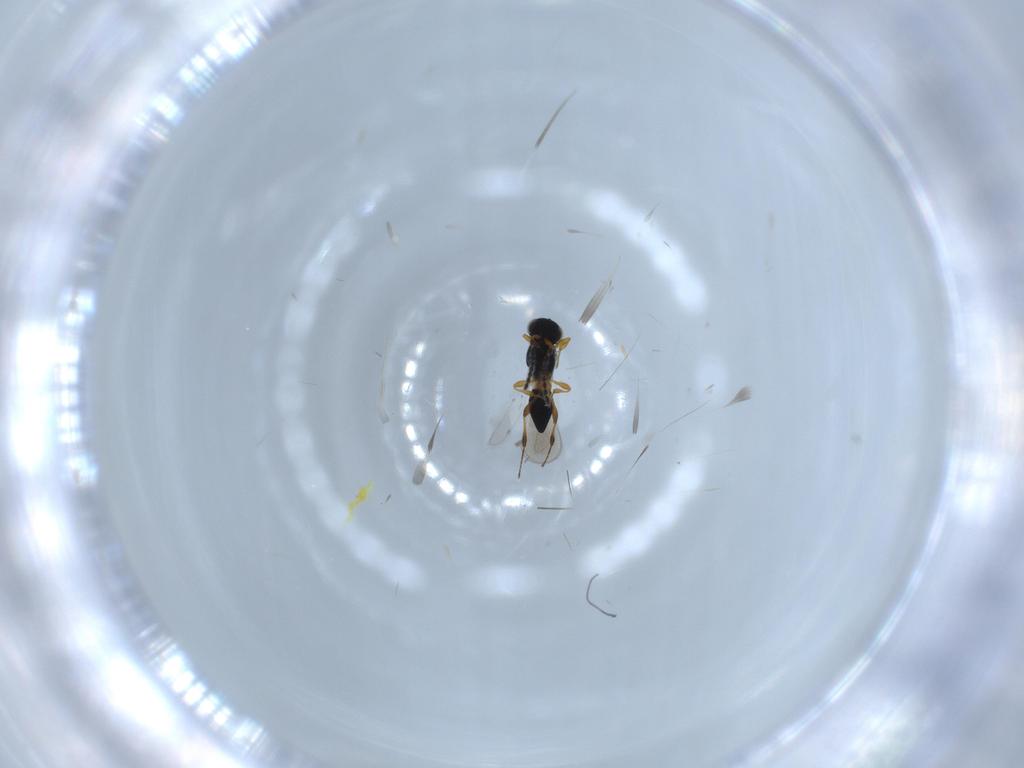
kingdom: Animalia
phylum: Arthropoda
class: Insecta
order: Hymenoptera
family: Platygastridae
